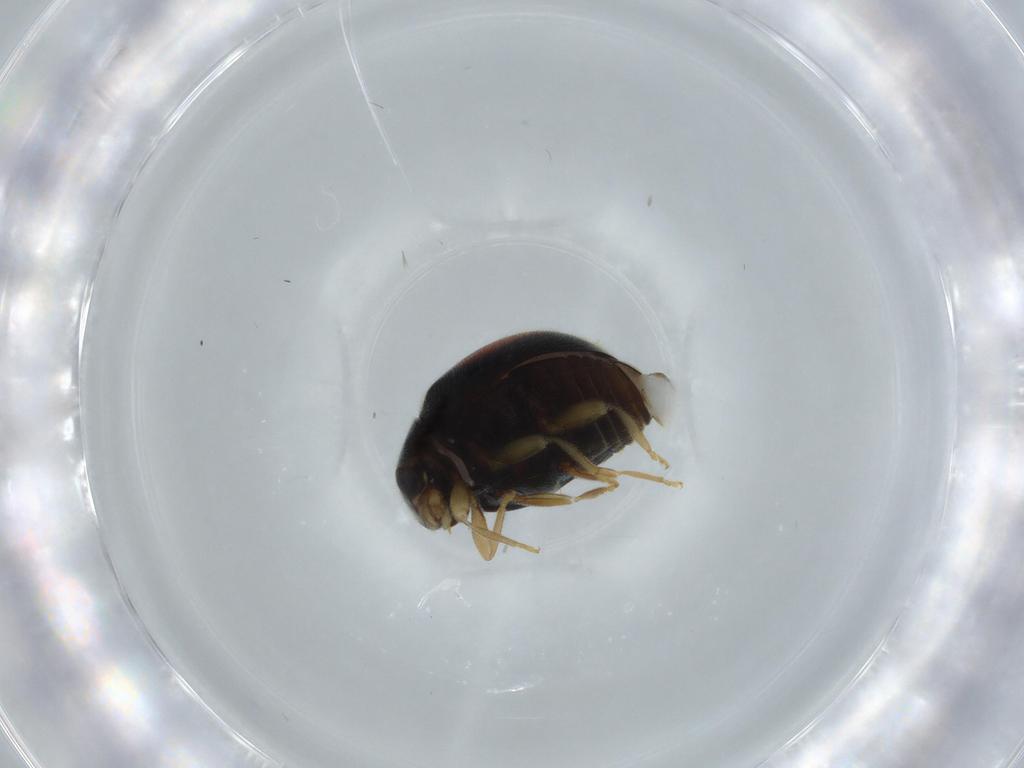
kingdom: Animalia
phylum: Arthropoda
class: Insecta
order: Coleoptera
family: Coccinellidae
